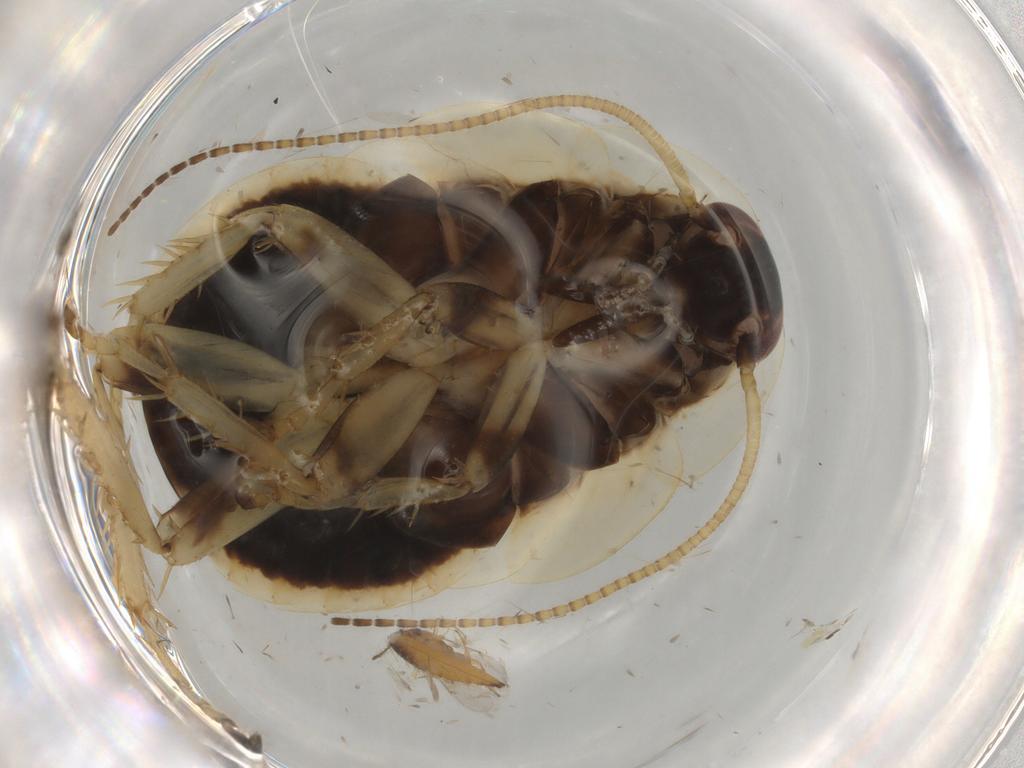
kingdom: Animalia
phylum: Arthropoda
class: Insecta
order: Blattodea
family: Ectobiidae
